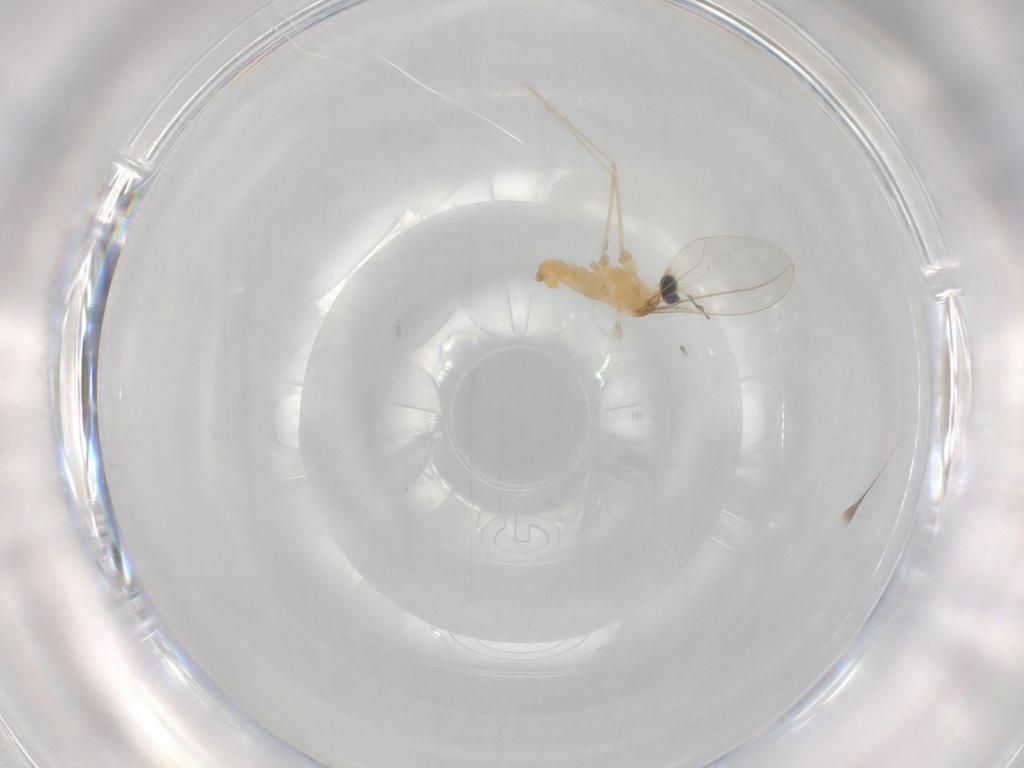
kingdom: Animalia
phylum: Arthropoda
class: Insecta
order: Diptera
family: Cecidomyiidae
